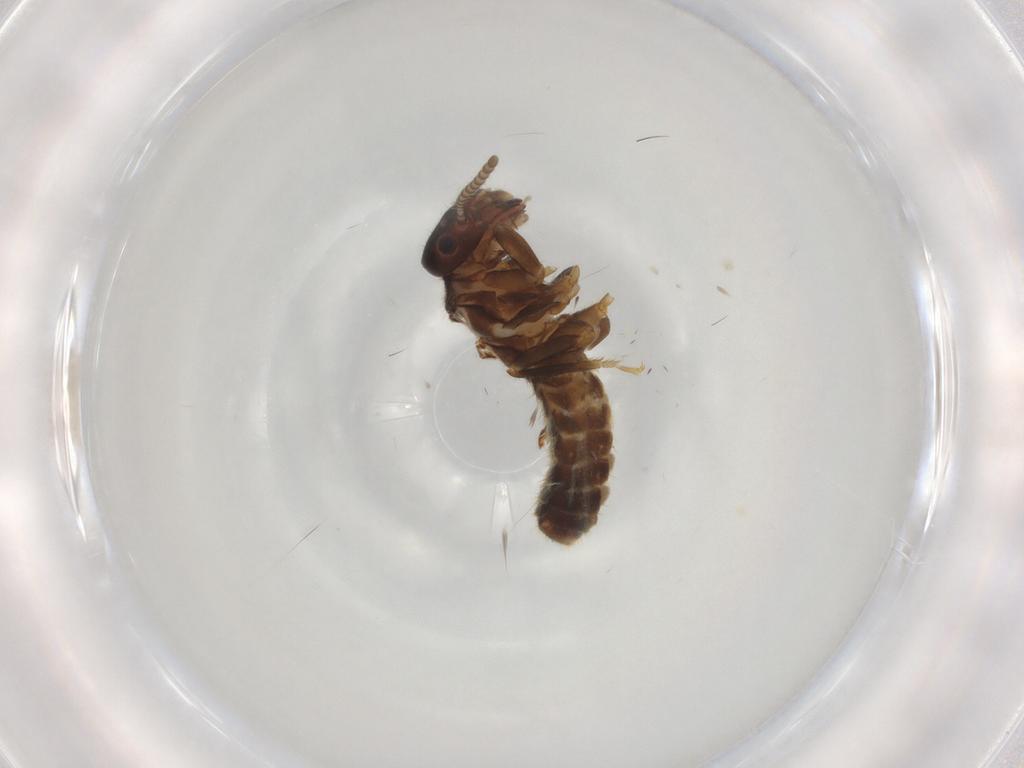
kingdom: Animalia
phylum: Arthropoda
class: Insecta
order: Blattodea
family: Termitidae
